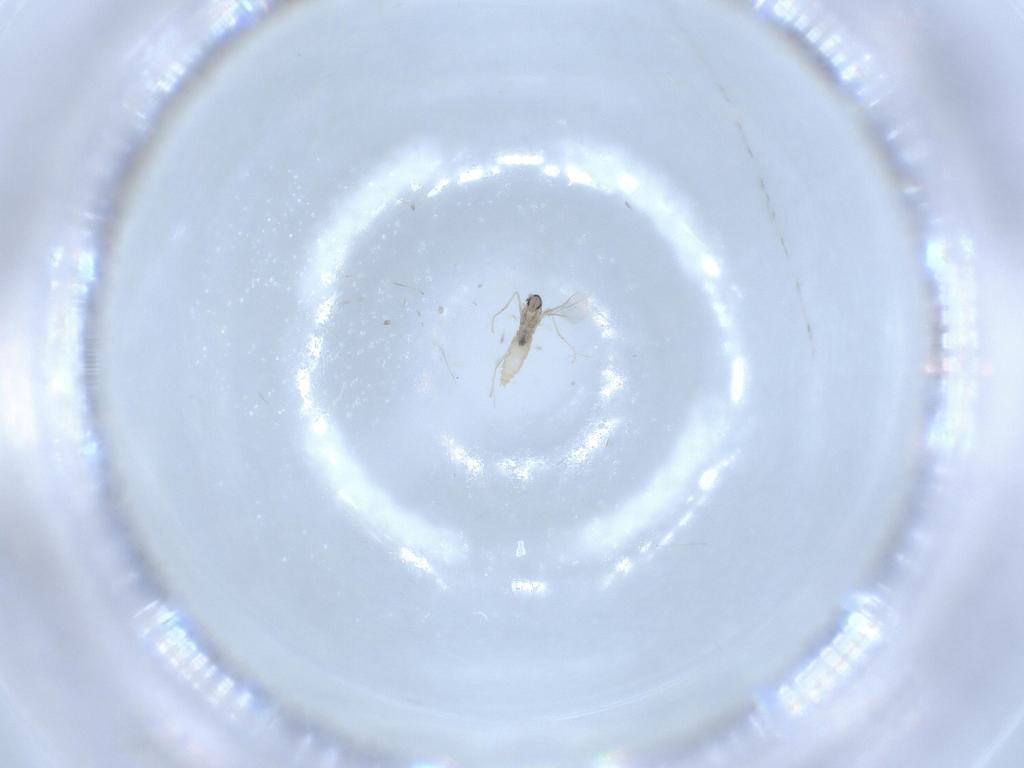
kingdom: Animalia
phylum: Arthropoda
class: Insecta
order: Diptera
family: Cecidomyiidae
